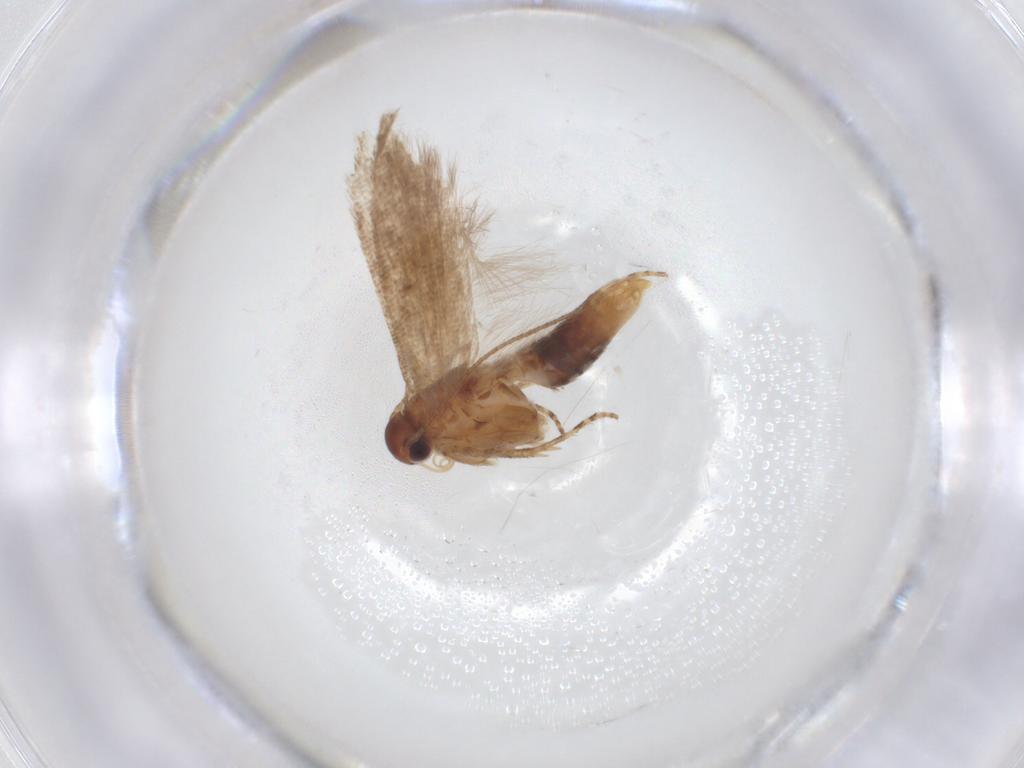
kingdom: Animalia
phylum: Arthropoda
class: Insecta
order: Lepidoptera
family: Gelechiidae
